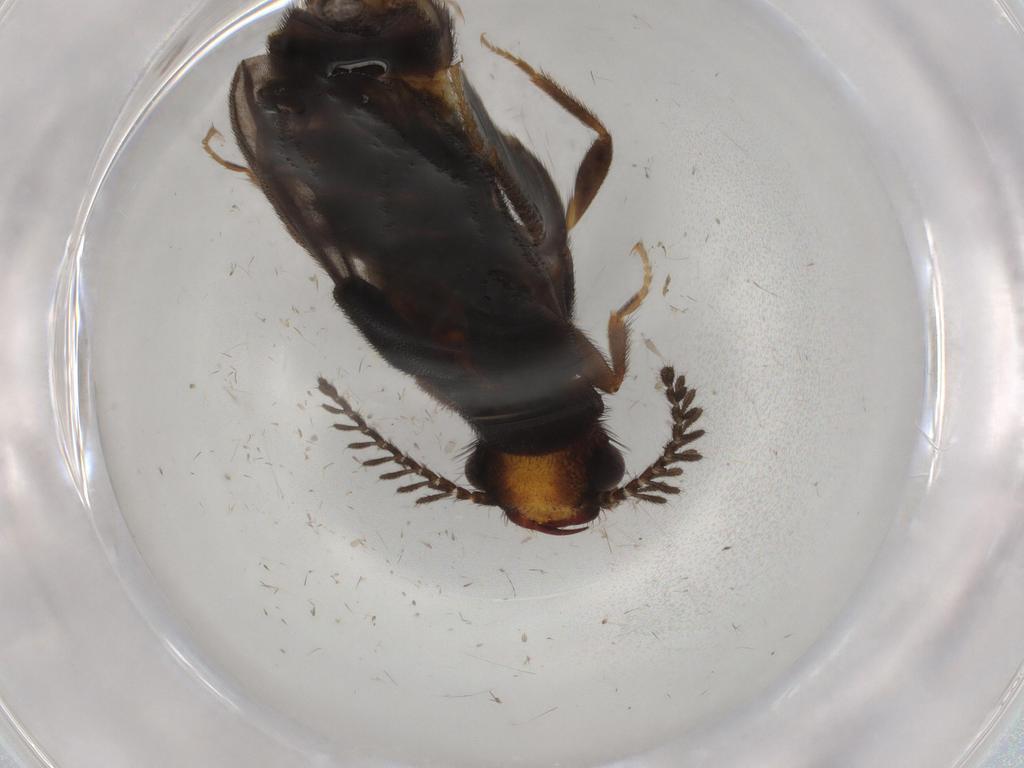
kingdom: Animalia
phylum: Arthropoda
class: Insecta
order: Coleoptera
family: Phengodidae
